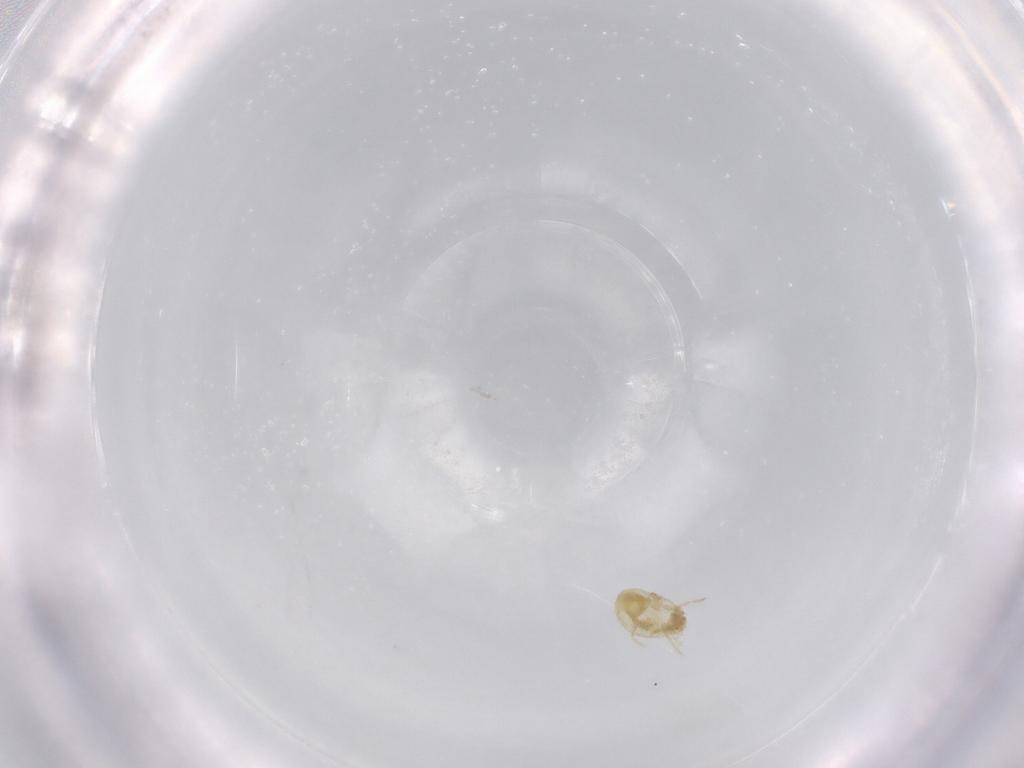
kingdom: Animalia
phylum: Arthropoda
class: Arachnida
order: Trombidiformes
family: Tetranychidae
